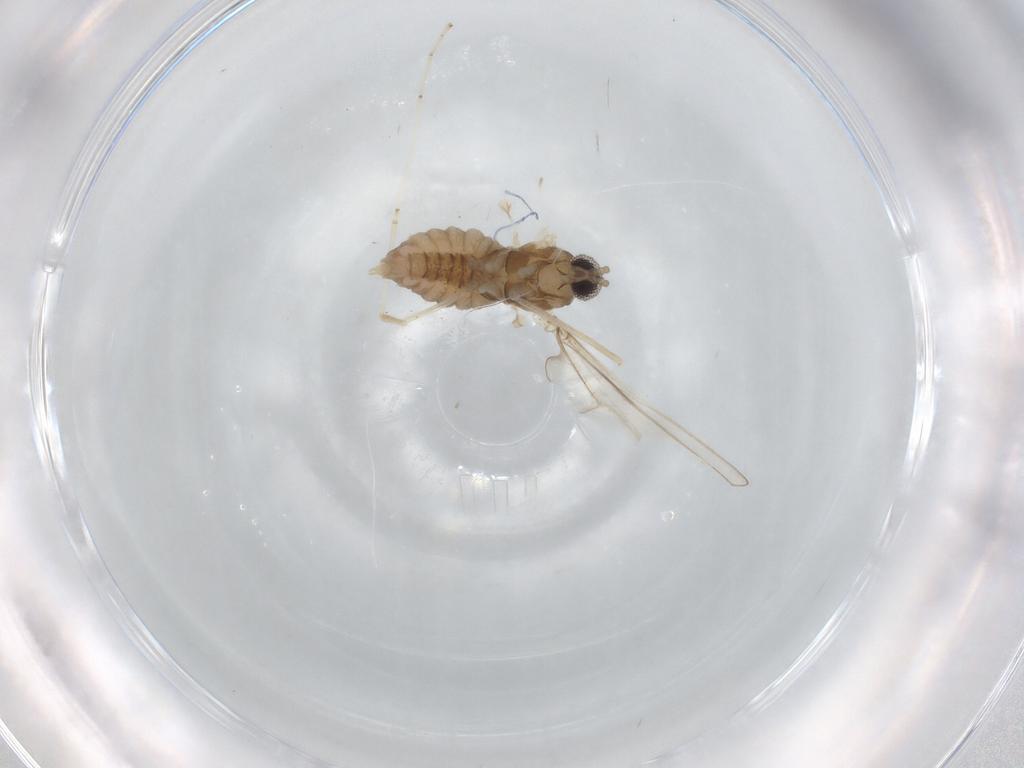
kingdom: Animalia
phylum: Arthropoda
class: Insecta
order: Diptera
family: Cecidomyiidae
